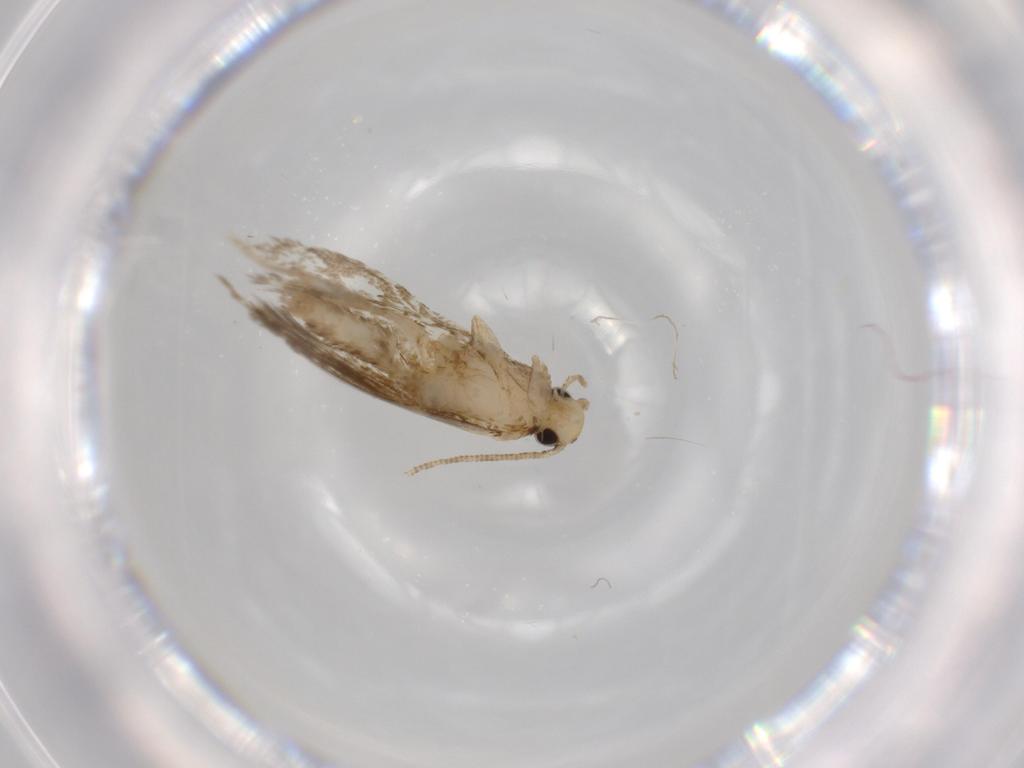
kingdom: Animalia
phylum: Arthropoda
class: Insecta
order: Lepidoptera
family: Tineidae
